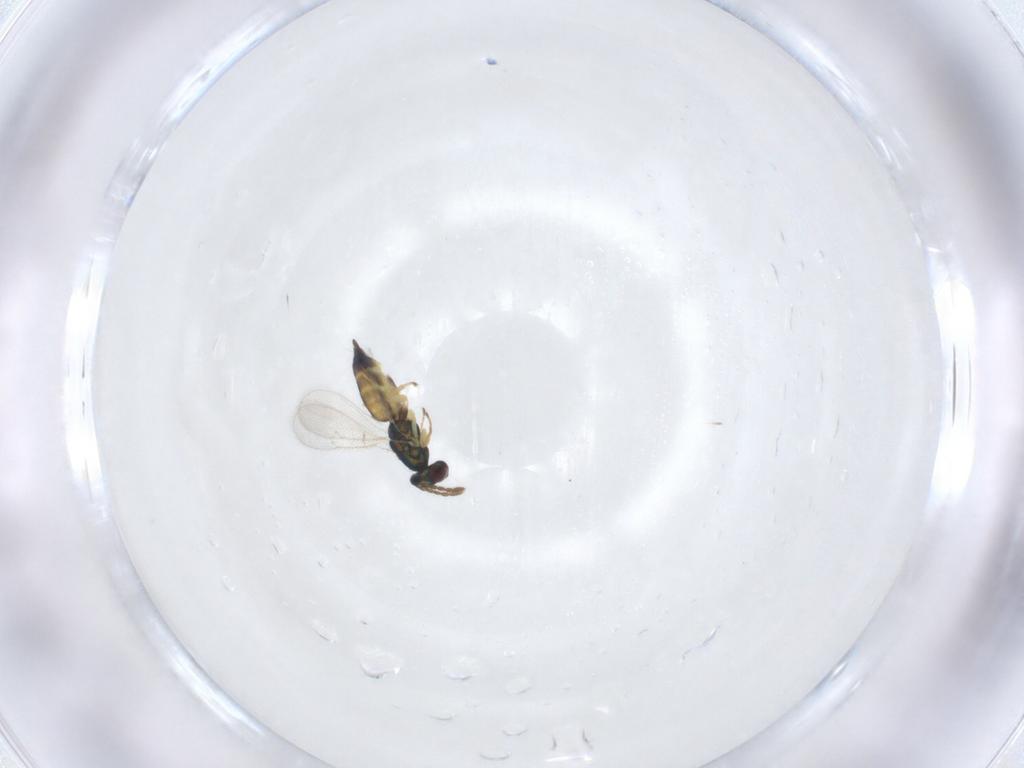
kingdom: Animalia
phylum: Arthropoda
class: Insecta
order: Hymenoptera
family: Eulophidae
